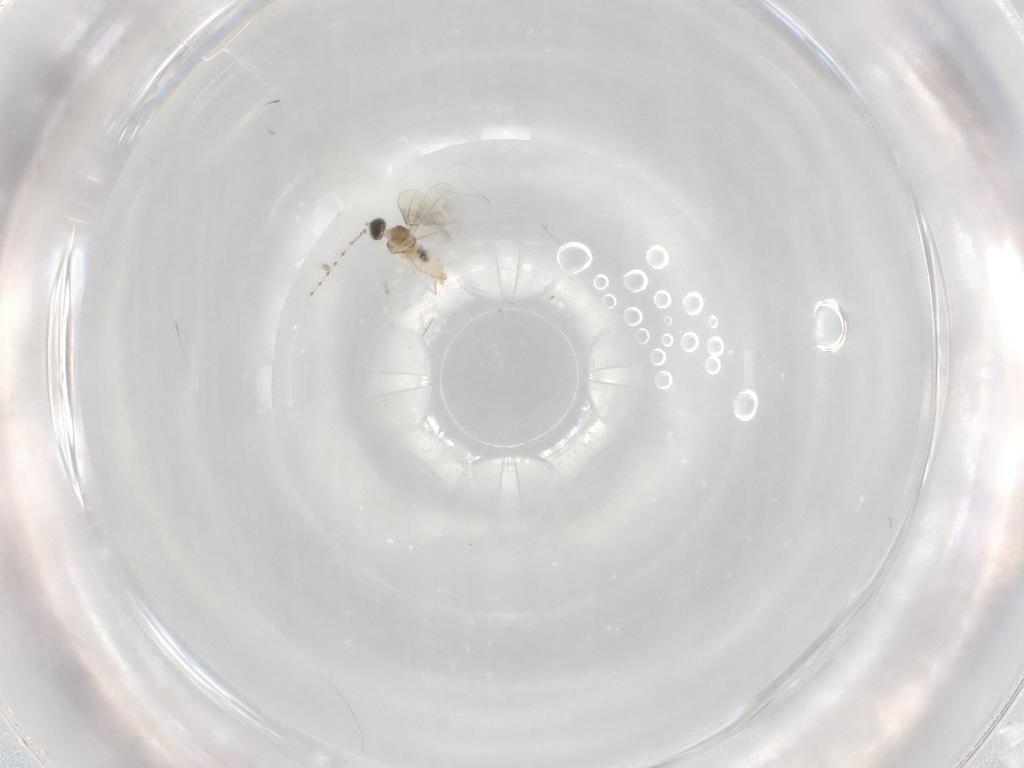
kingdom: Animalia
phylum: Arthropoda
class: Insecta
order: Diptera
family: Cecidomyiidae
